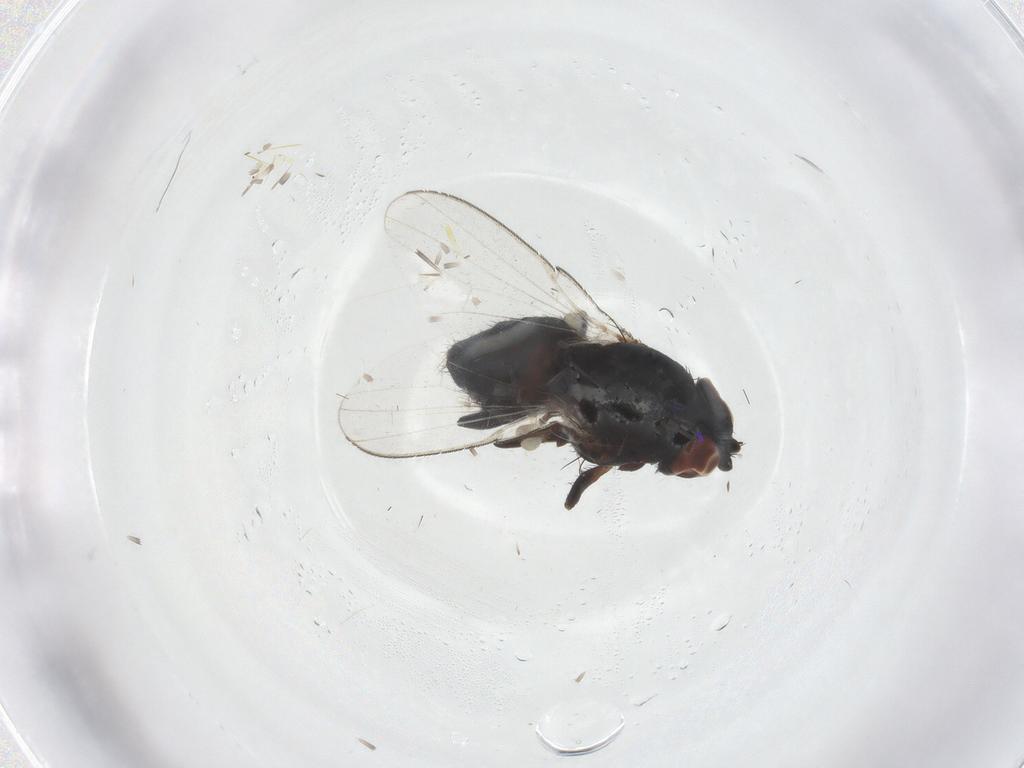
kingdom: Animalia
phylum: Arthropoda
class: Insecta
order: Diptera
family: Milichiidae
